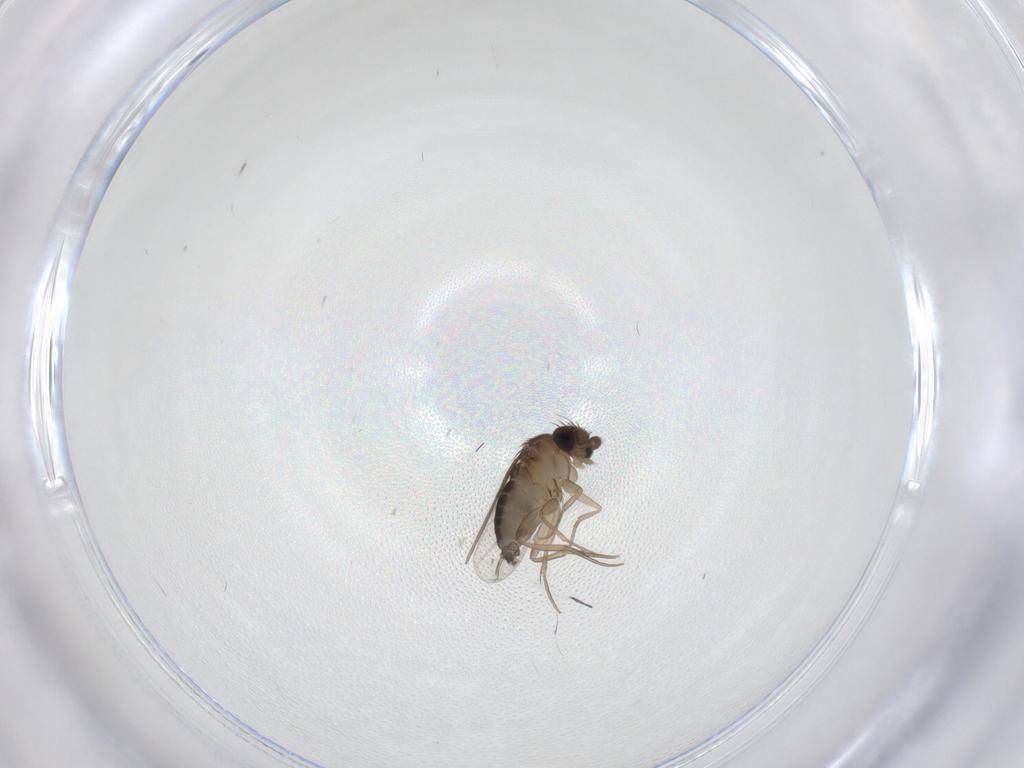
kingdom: Animalia
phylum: Arthropoda
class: Insecta
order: Diptera
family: Phoridae
